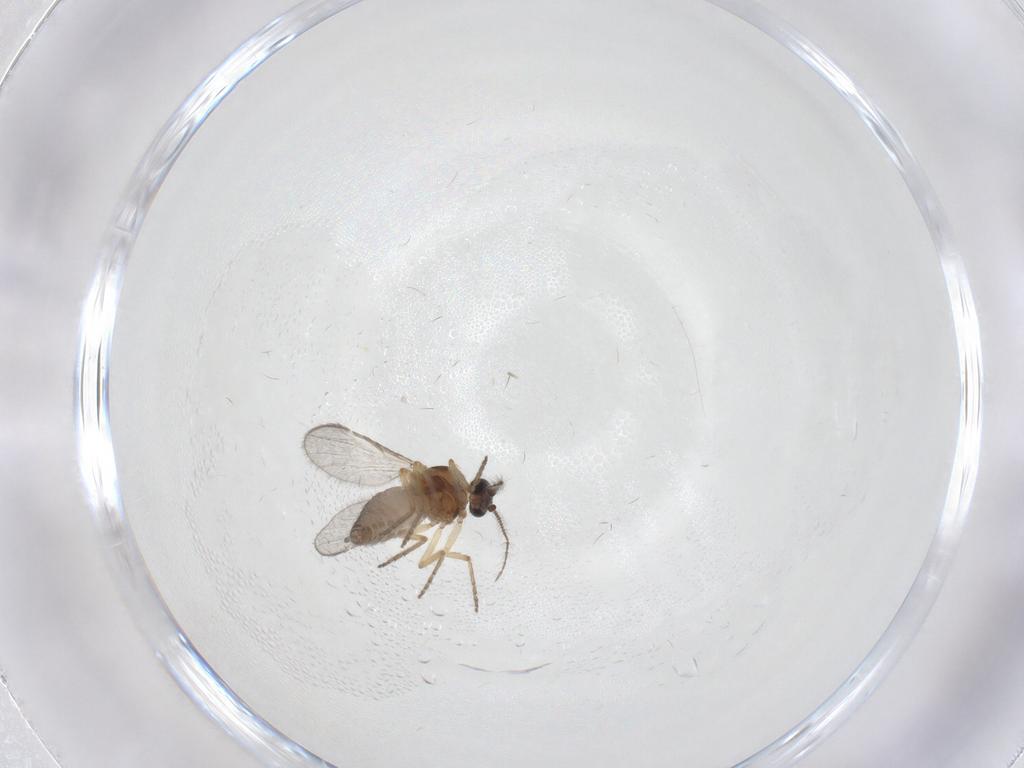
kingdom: Animalia
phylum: Arthropoda
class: Insecta
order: Diptera
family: Ceratopogonidae
